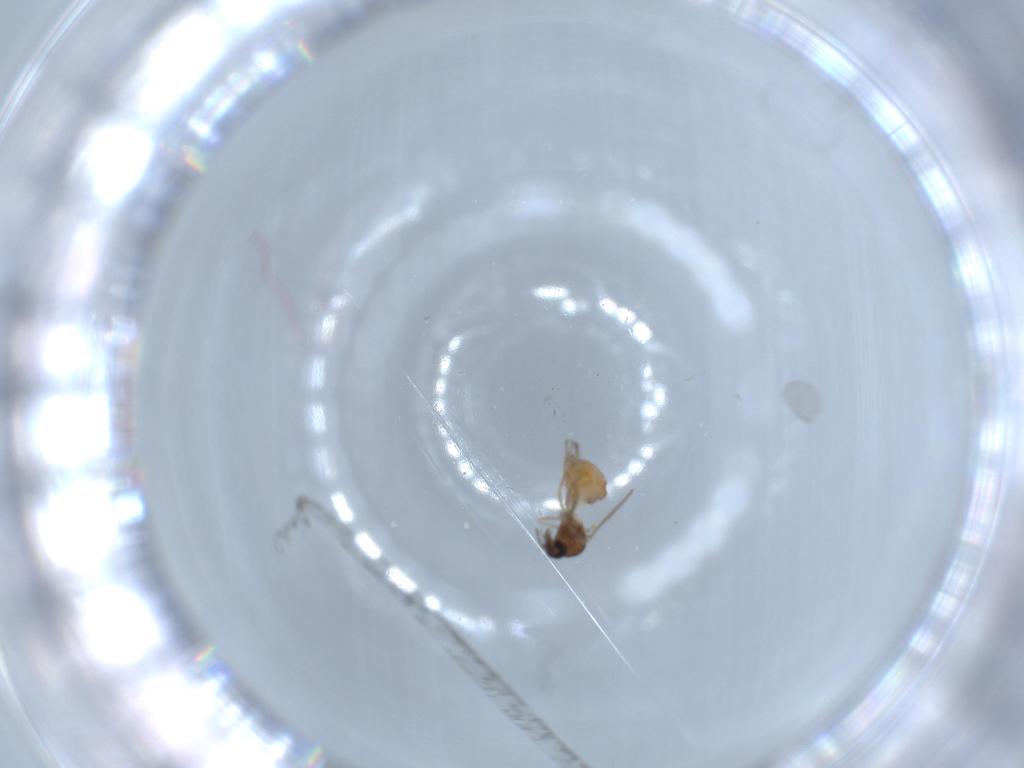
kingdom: Animalia
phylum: Arthropoda
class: Insecta
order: Diptera
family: Ceratopogonidae
